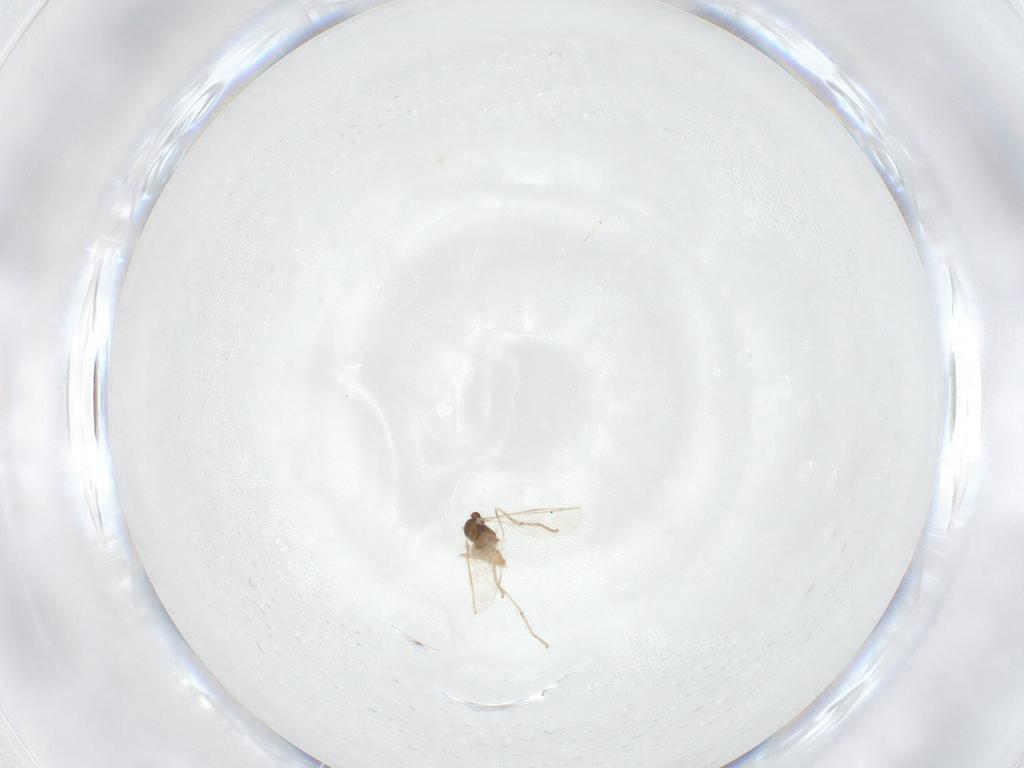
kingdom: Animalia
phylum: Arthropoda
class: Insecta
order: Diptera
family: Cecidomyiidae
